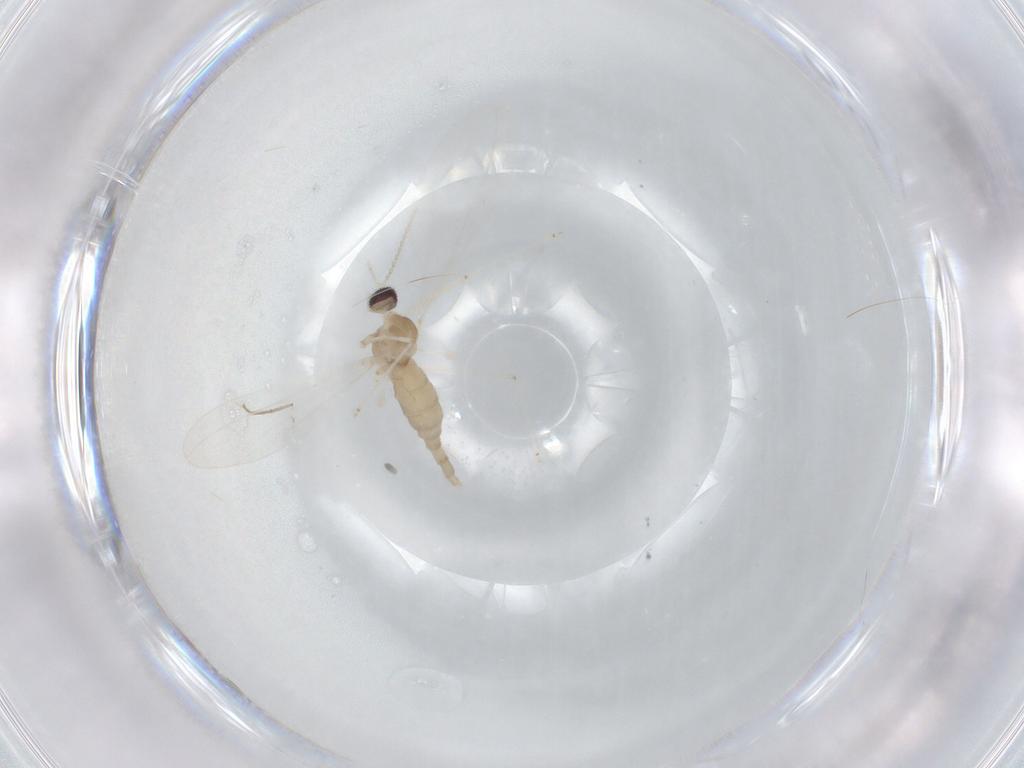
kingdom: Animalia
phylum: Arthropoda
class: Insecta
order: Diptera
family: Cecidomyiidae
